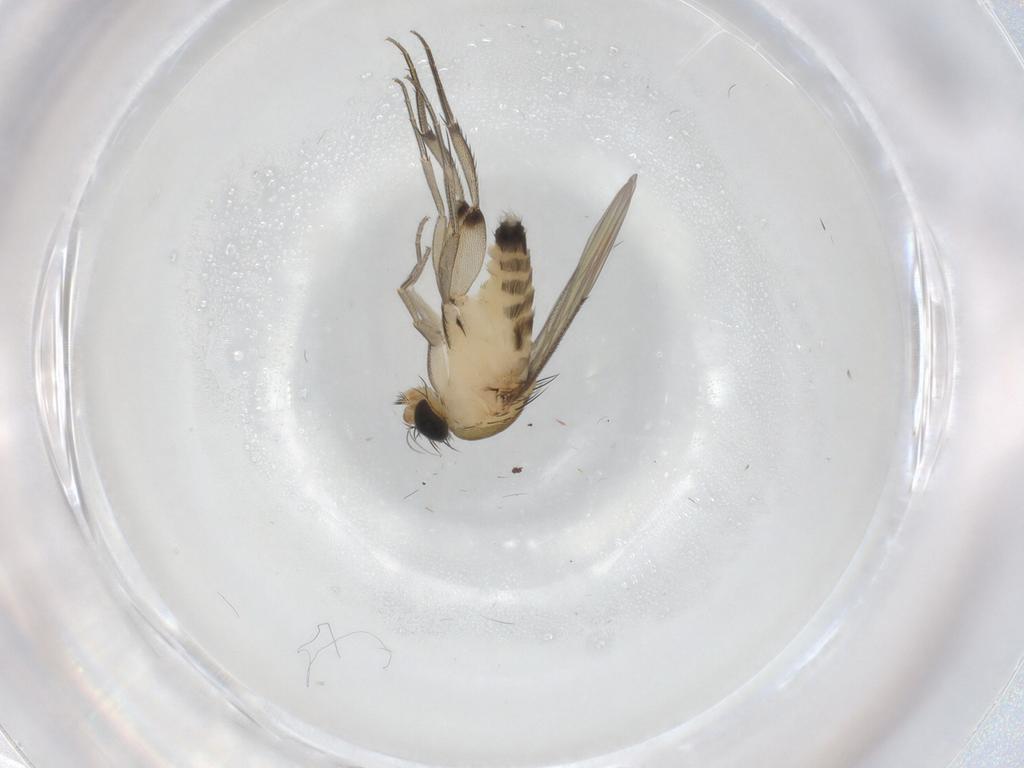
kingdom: Animalia
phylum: Arthropoda
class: Insecta
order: Diptera
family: Phoridae
